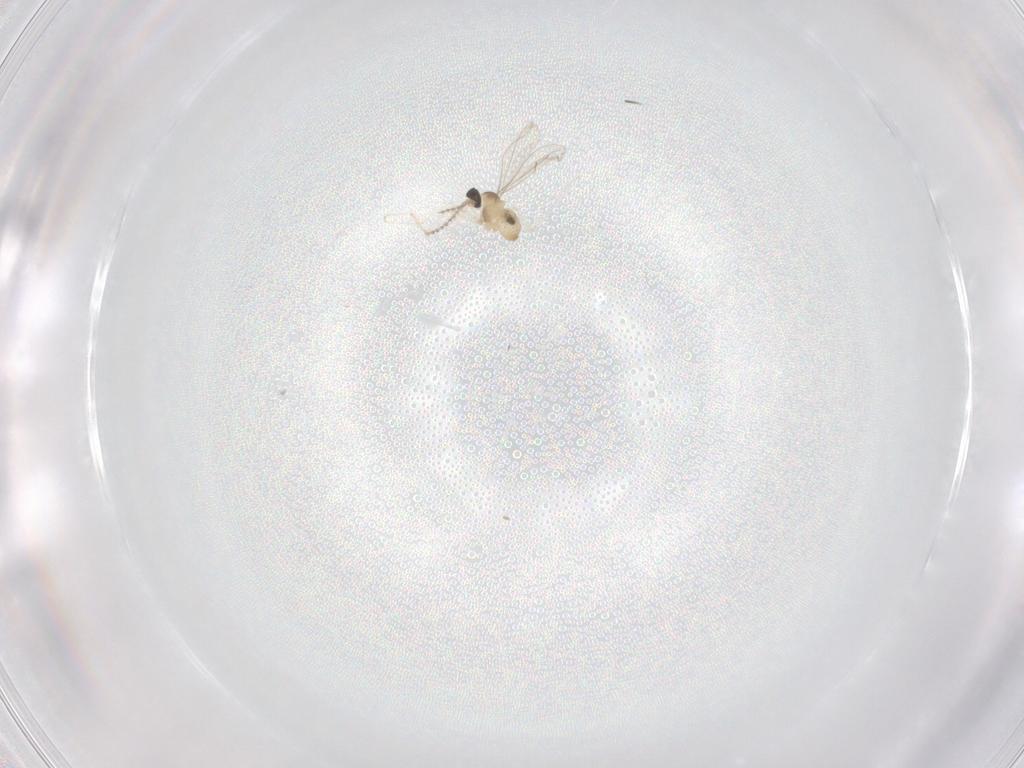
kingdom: Animalia
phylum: Arthropoda
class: Insecta
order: Diptera
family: Cecidomyiidae
